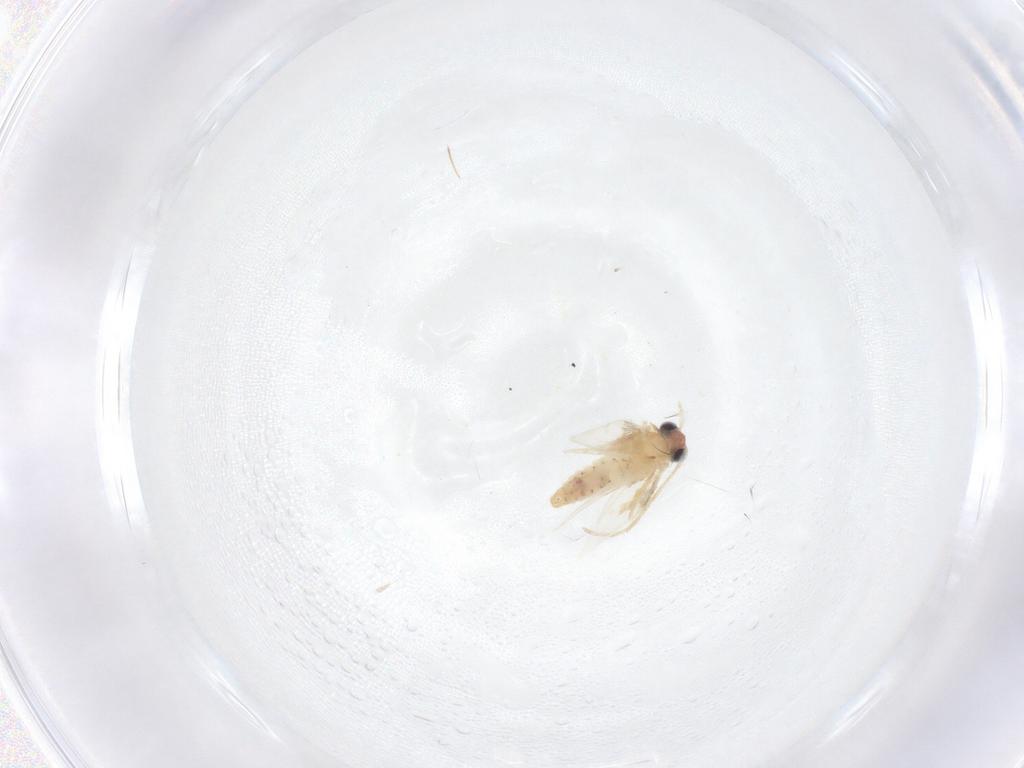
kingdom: Animalia
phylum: Arthropoda
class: Insecta
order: Lepidoptera
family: Nepticulidae
